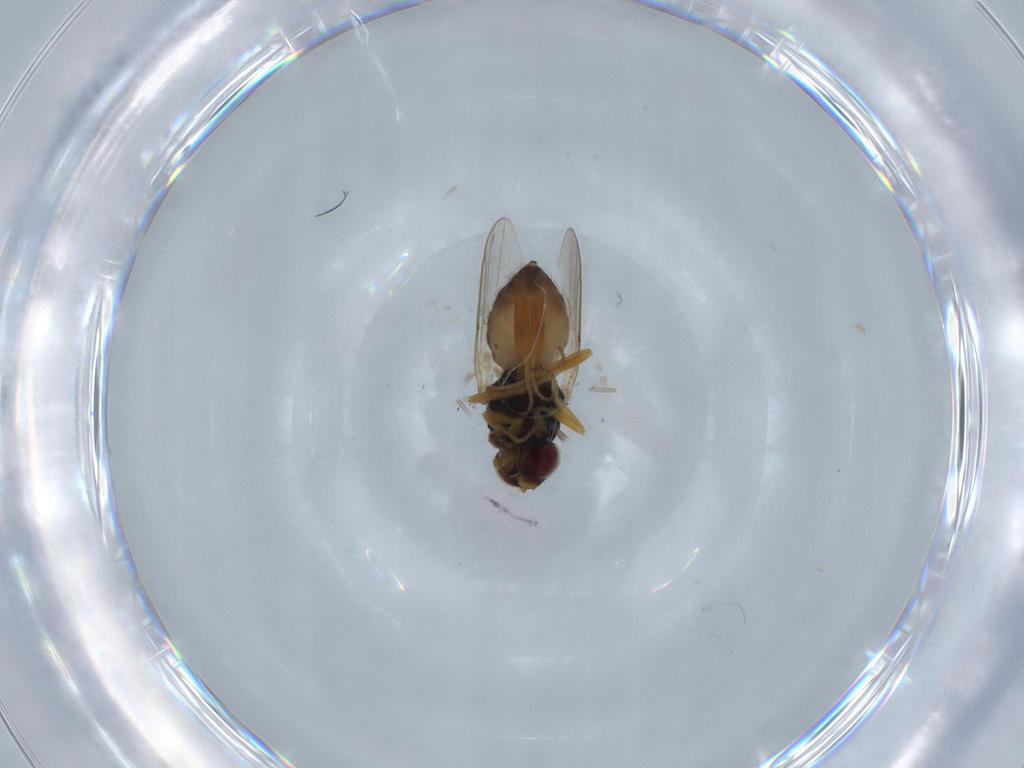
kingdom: Animalia
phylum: Arthropoda
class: Insecta
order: Diptera
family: Chloropidae
